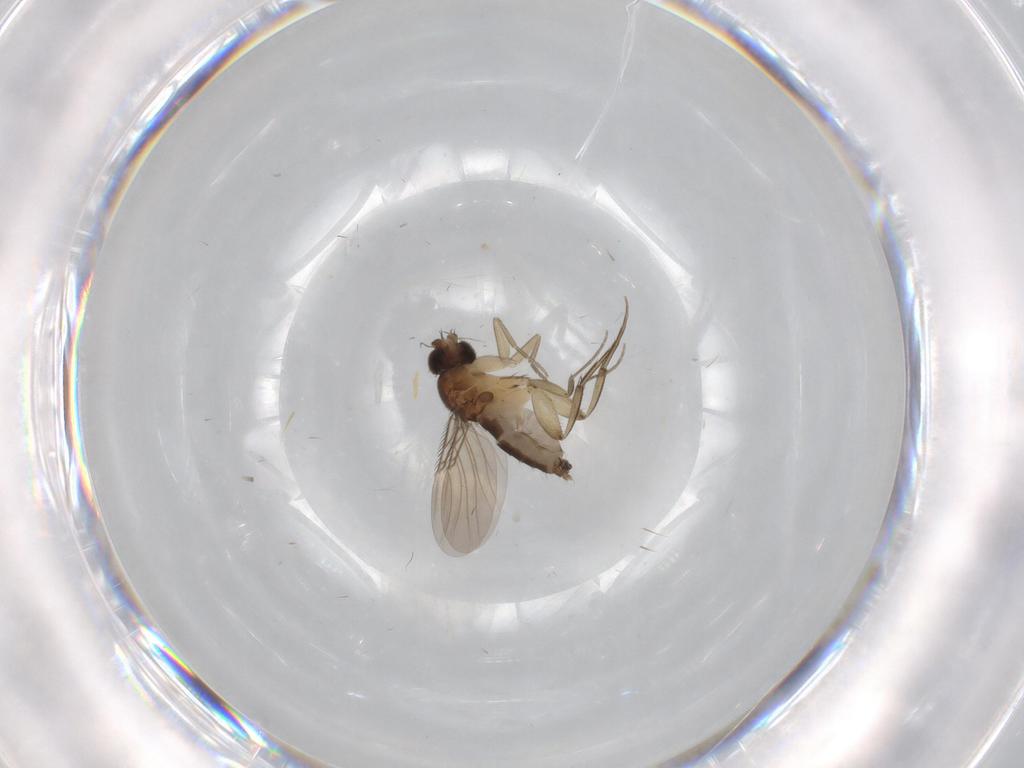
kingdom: Animalia
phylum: Arthropoda
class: Insecta
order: Diptera
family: Phoridae
